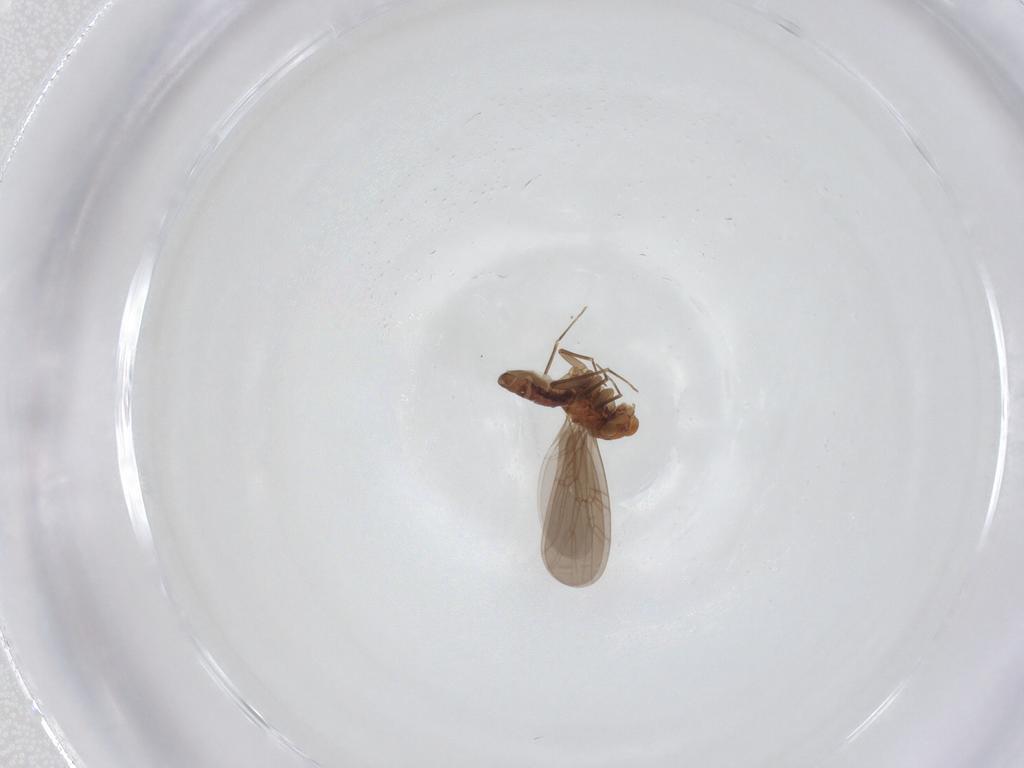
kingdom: Animalia
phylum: Arthropoda
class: Insecta
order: Psocodea
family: Lepidopsocidae
